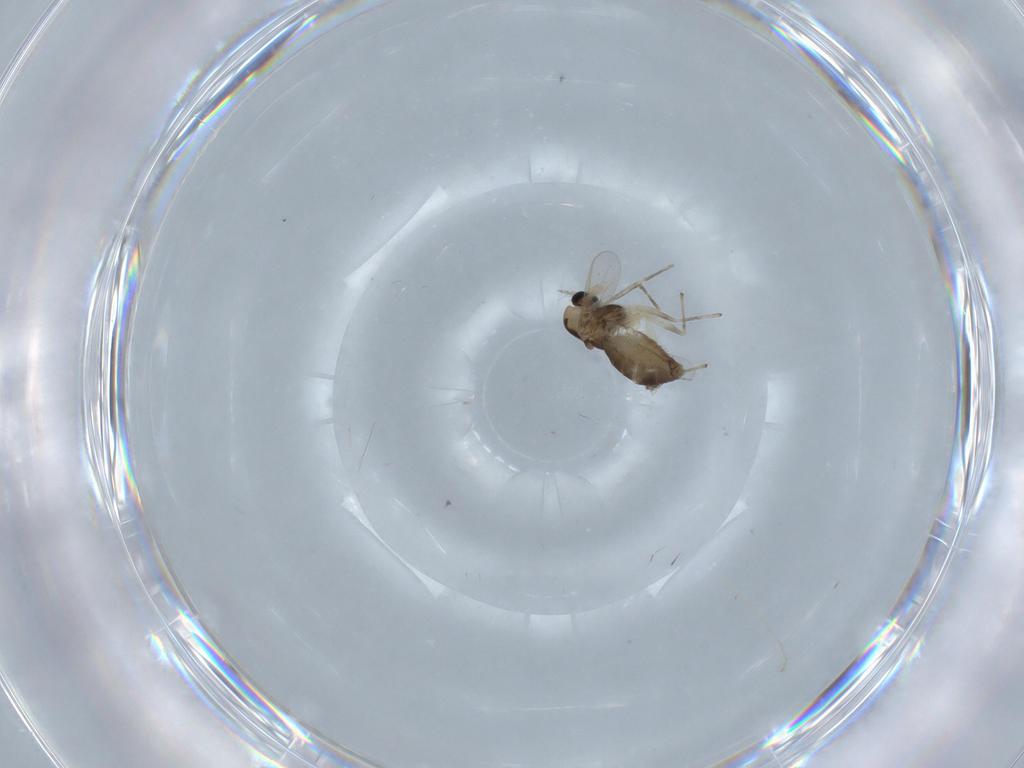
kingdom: Animalia
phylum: Arthropoda
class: Insecta
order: Diptera
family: Chironomidae
